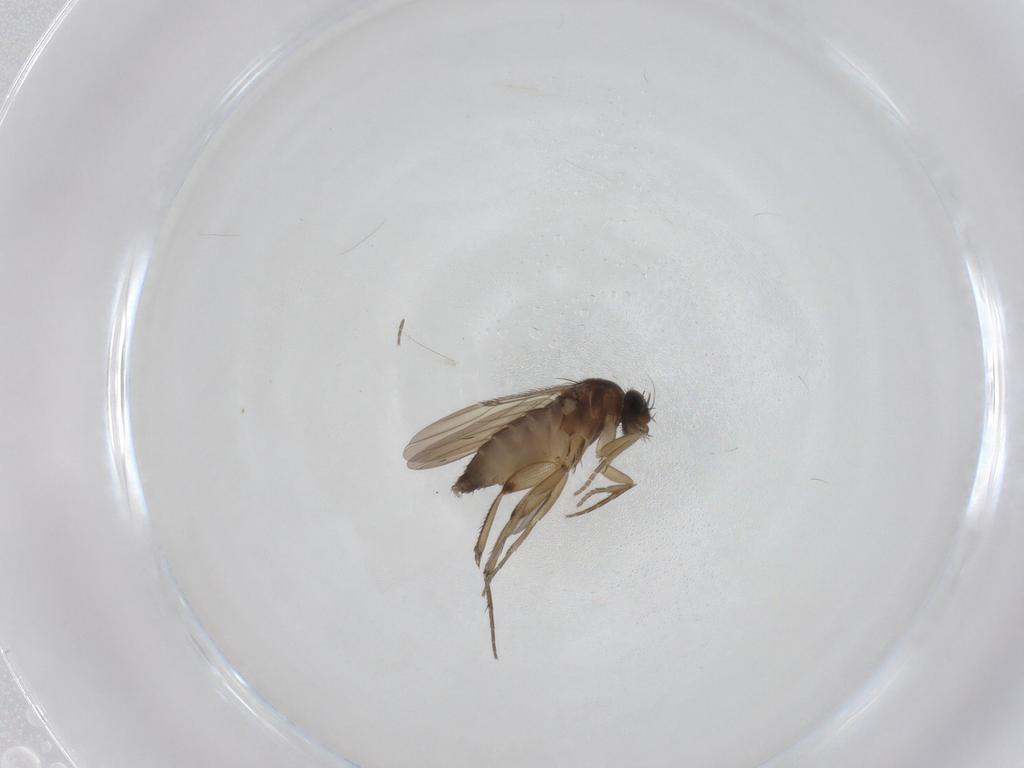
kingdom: Animalia
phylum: Arthropoda
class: Insecta
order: Diptera
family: Phoridae
